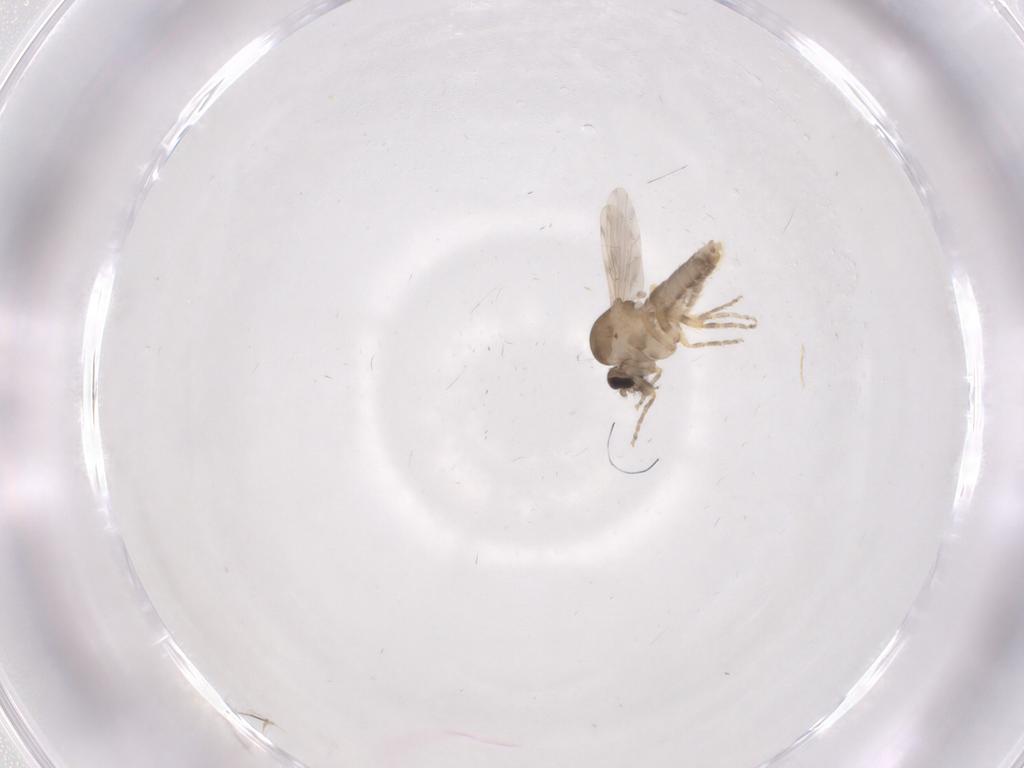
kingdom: Animalia
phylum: Arthropoda
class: Insecta
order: Diptera
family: Ceratopogonidae
